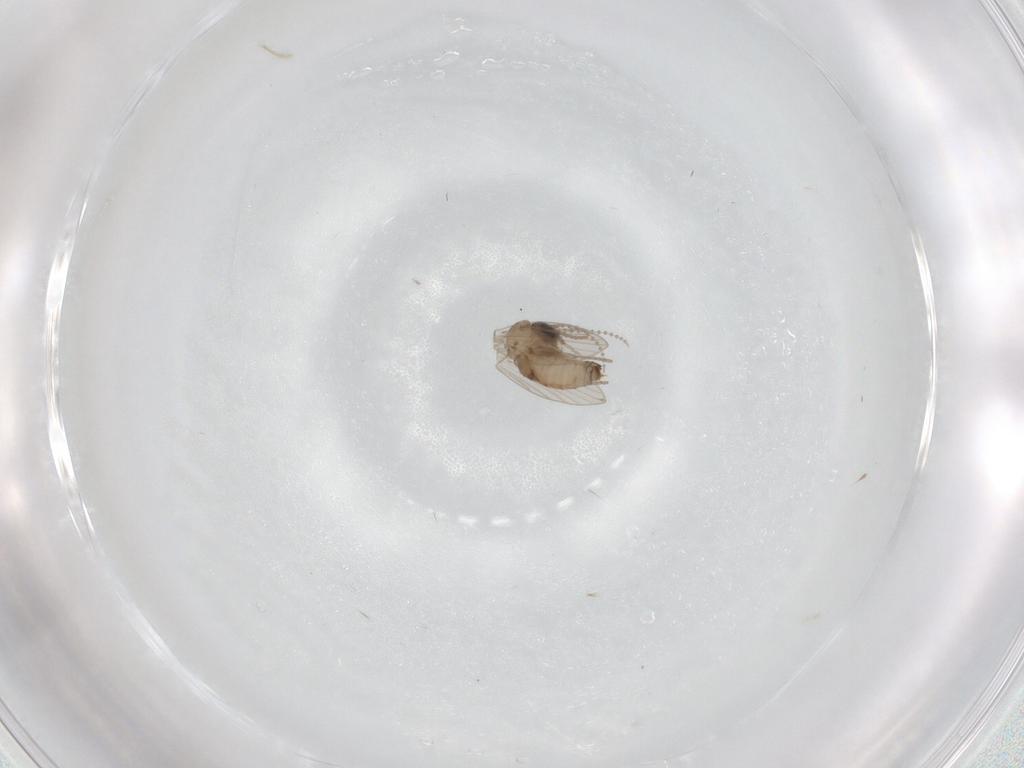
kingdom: Animalia
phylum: Arthropoda
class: Insecta
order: Diptera
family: Psychodidae
